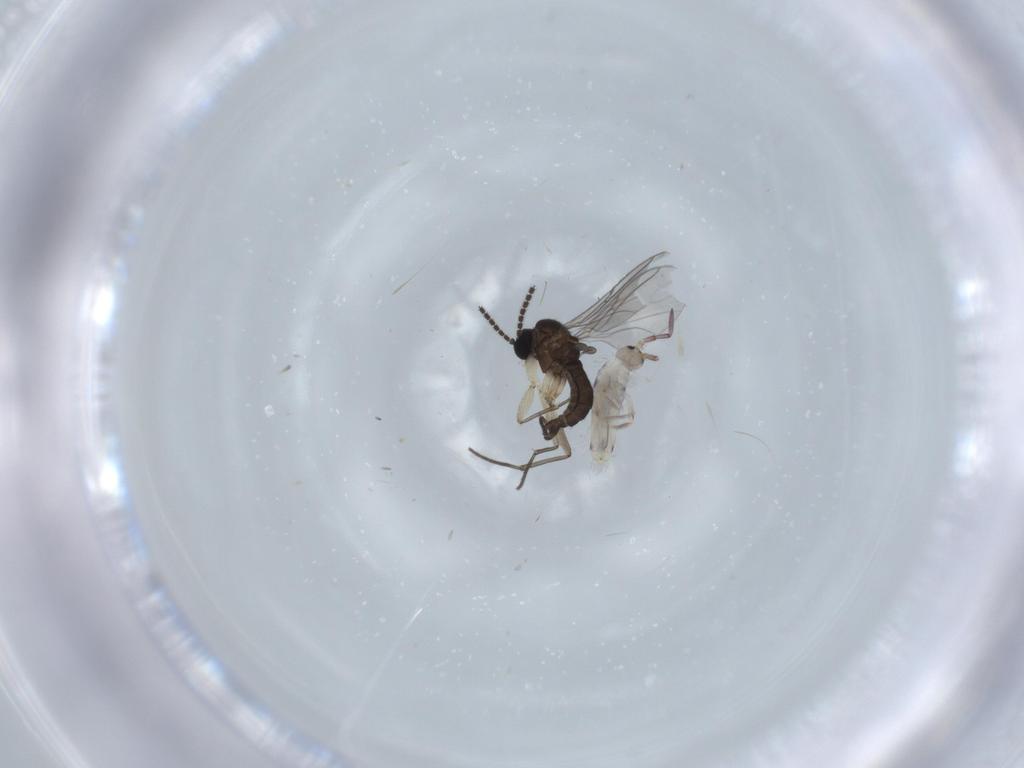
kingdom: Animalia
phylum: Arthropoda
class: Insecta
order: Diptera
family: Sciaridae
